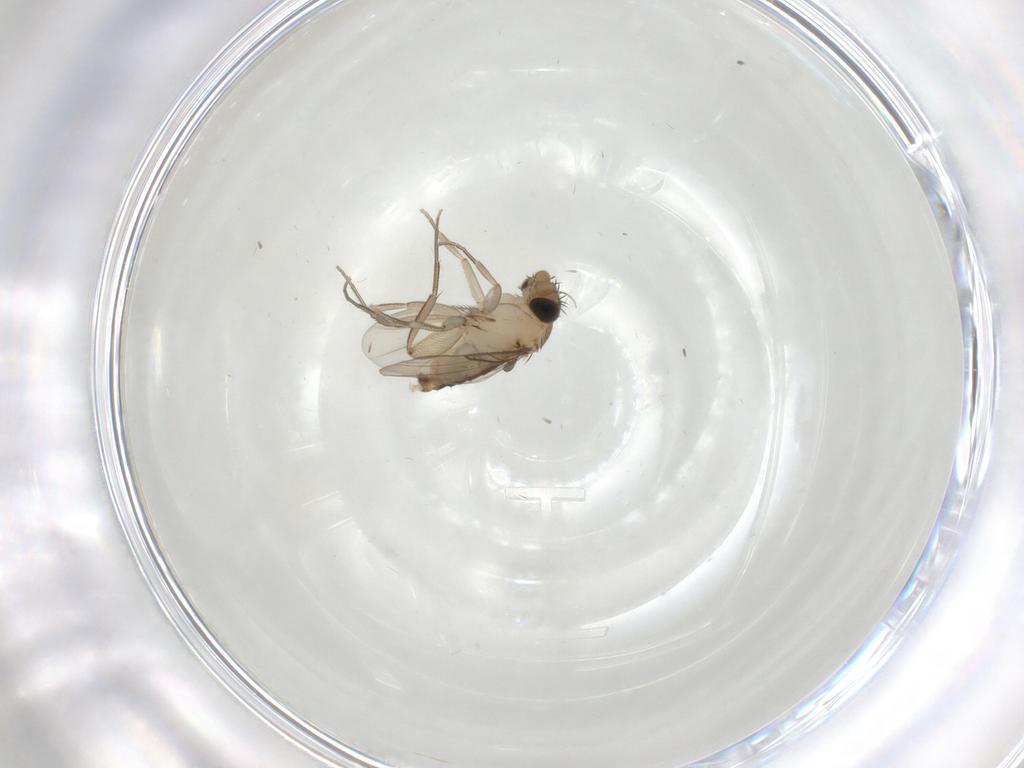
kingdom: Animalia
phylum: Arthropoda
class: Insecta
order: Diptera
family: Phoridae
